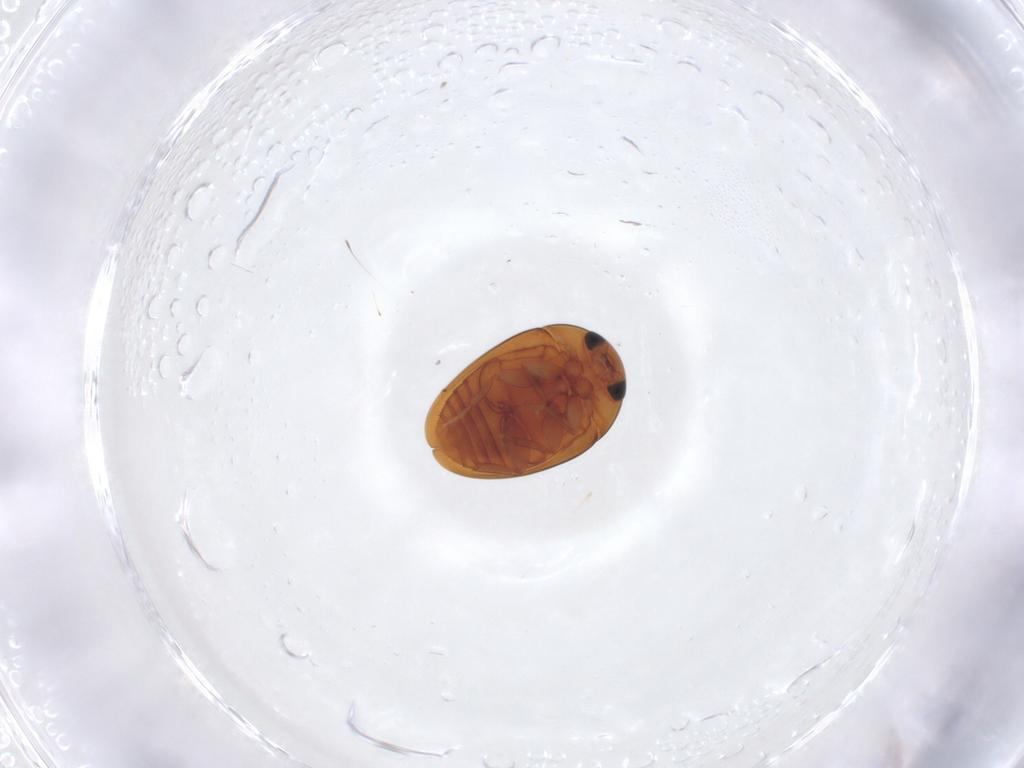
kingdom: Animalia
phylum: Arthropoda
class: Insecta
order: Coleoptera
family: Phalacridae
